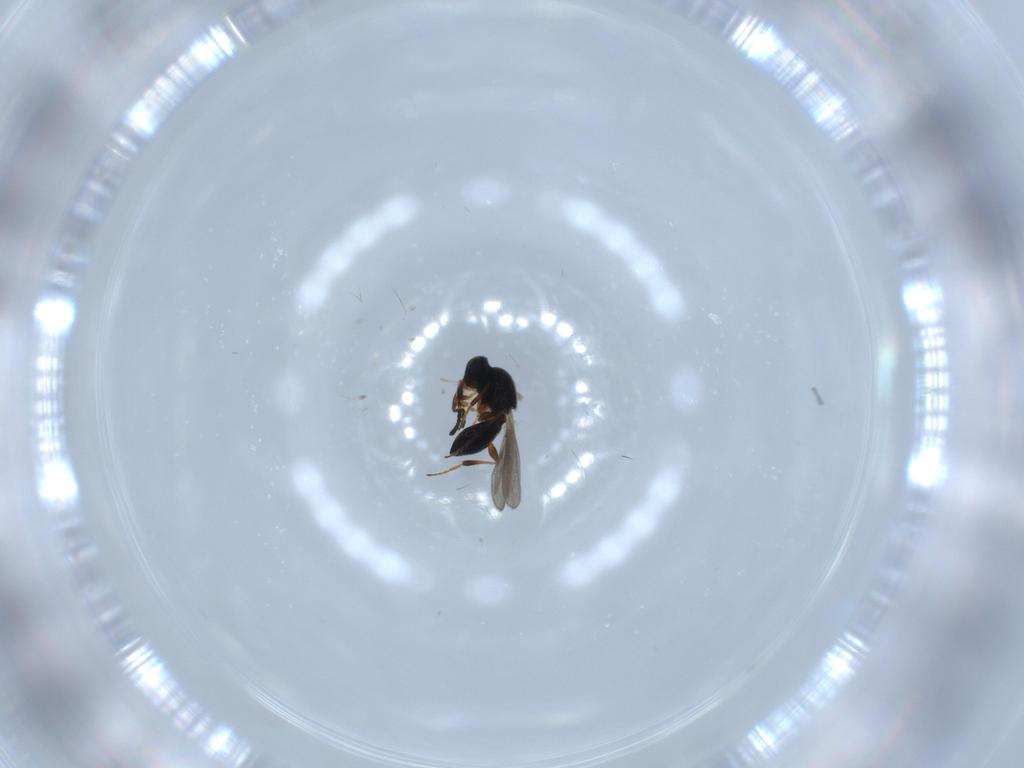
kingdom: Animalia
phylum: Arthropoda
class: Insecta
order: Hymenoptera
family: Platygastridae
